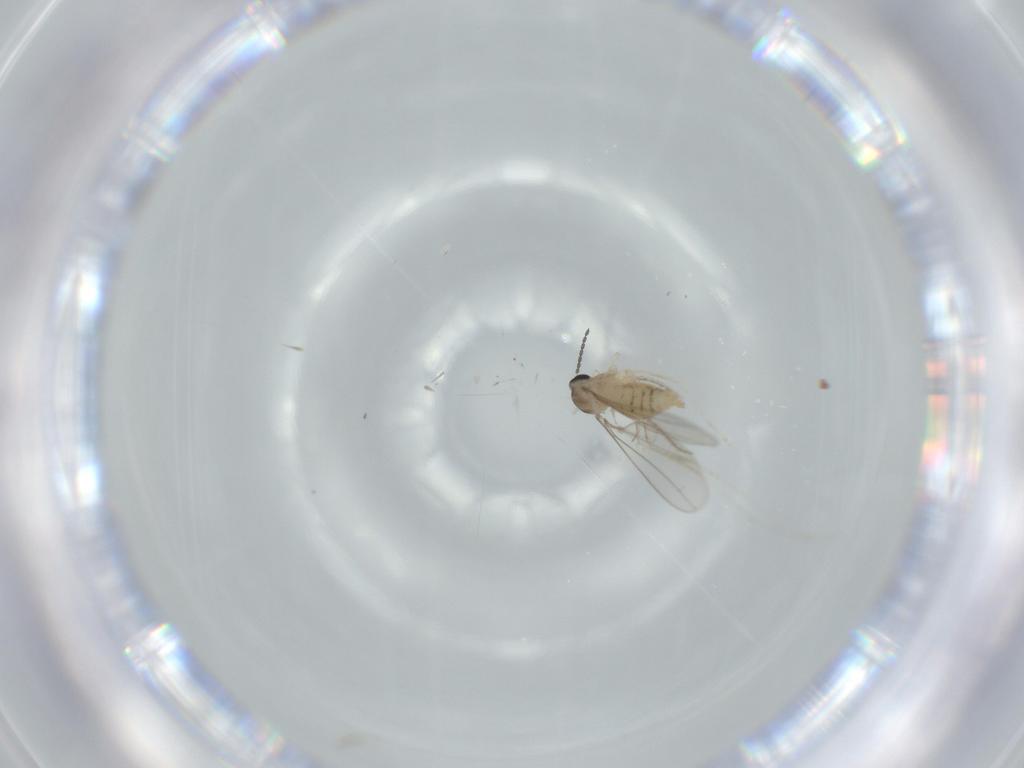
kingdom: Animalia
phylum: Arthropoda
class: Insecta
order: Diptera
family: Cecidomyiidae
